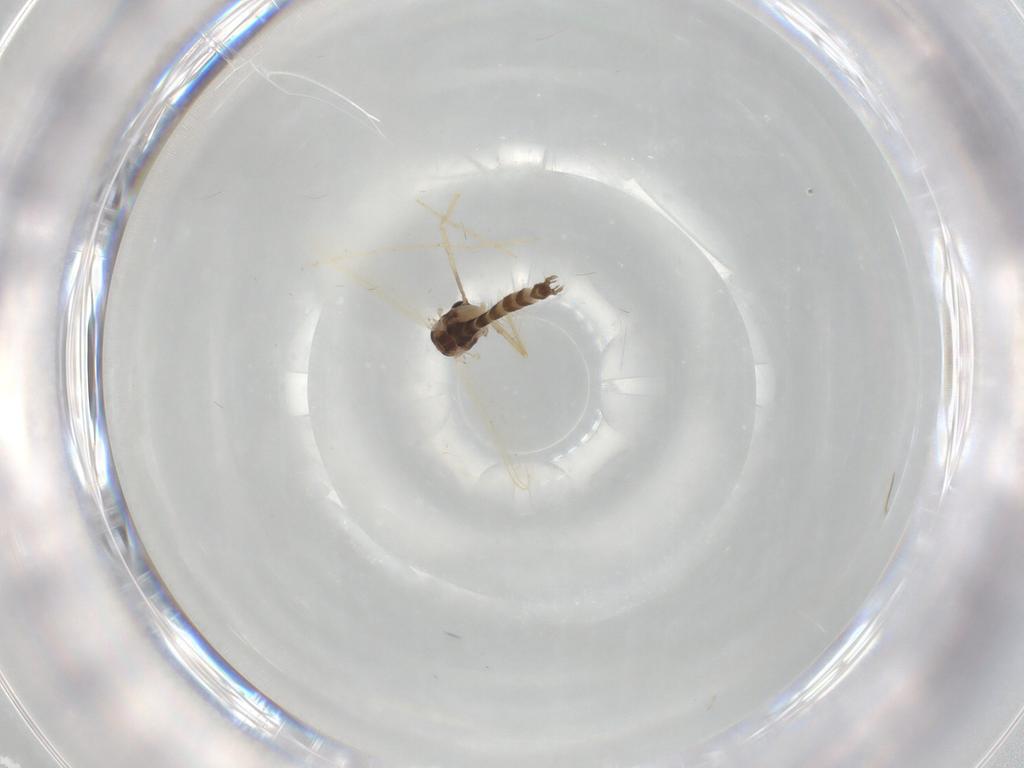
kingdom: Animalia
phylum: Arthropoda
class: Insecta
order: Diptera
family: Chironomidae
